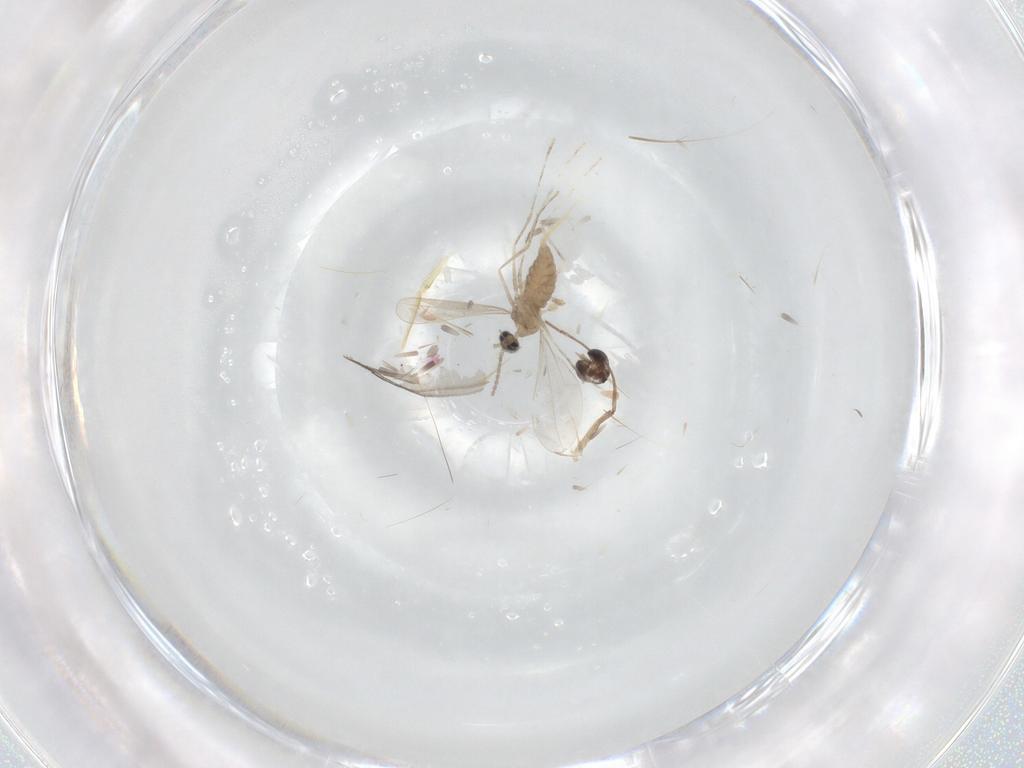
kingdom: Animalia
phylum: Arthropoda
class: Insecta
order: Diptera
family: Cecidomyiidae
